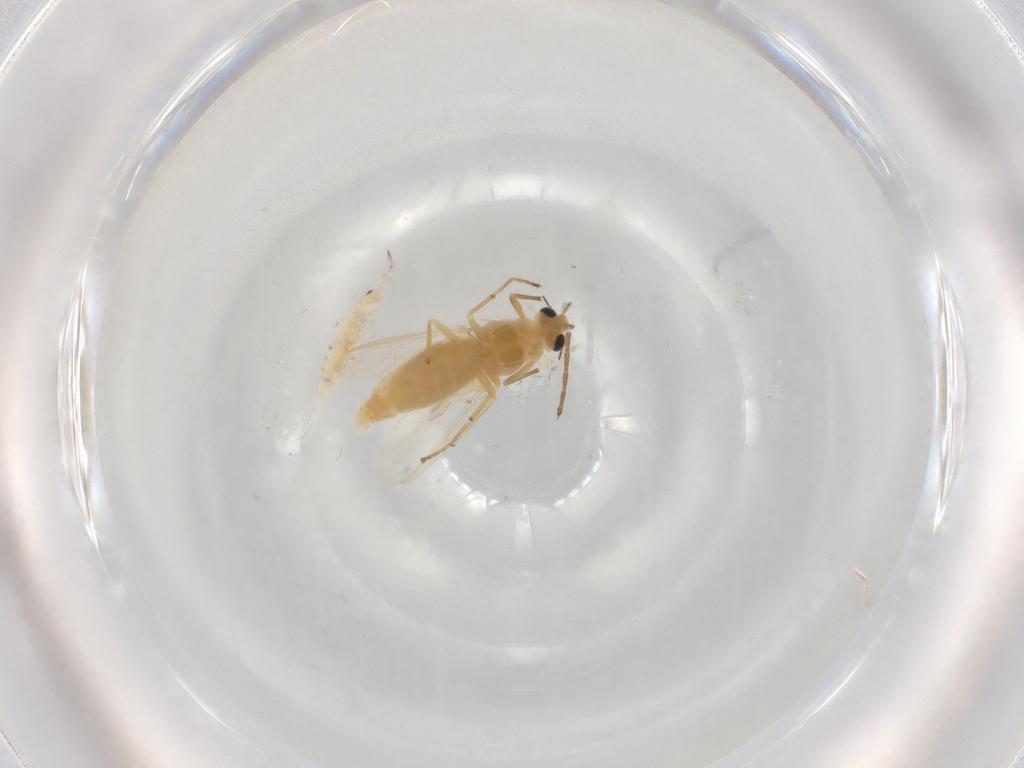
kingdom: Animalia
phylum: Arthropoda
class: Insecta
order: Diptera
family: Chironomidae
